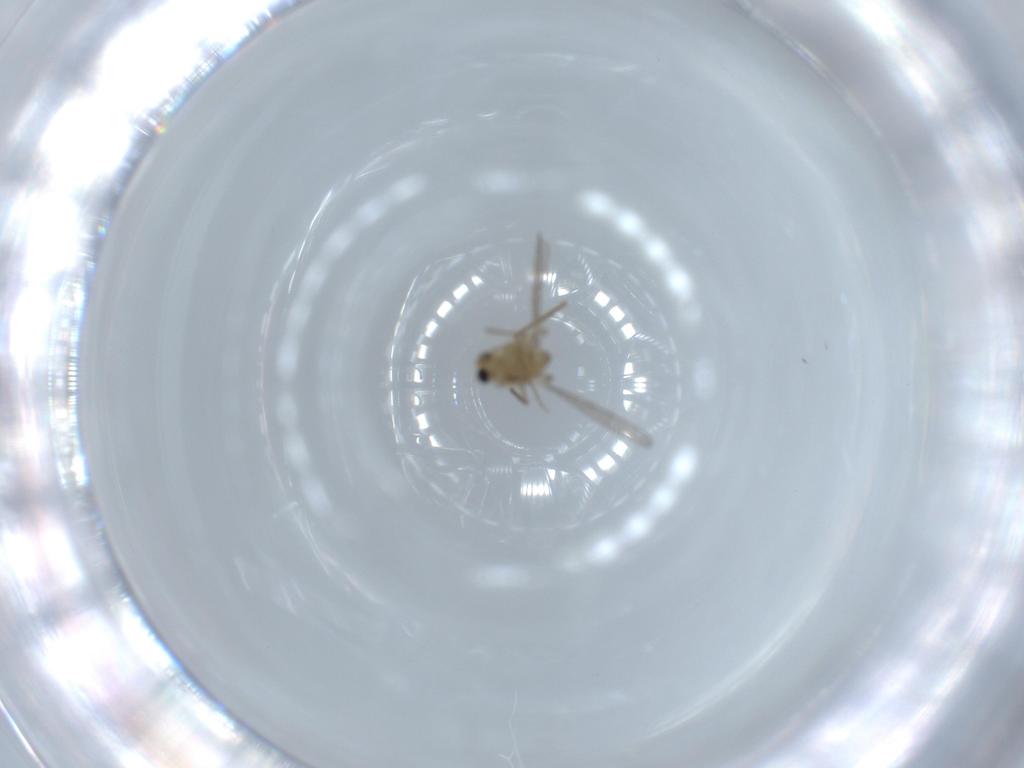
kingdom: Animalia
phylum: Arthropoda
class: Insecta
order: Diptera
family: Chironomidae
